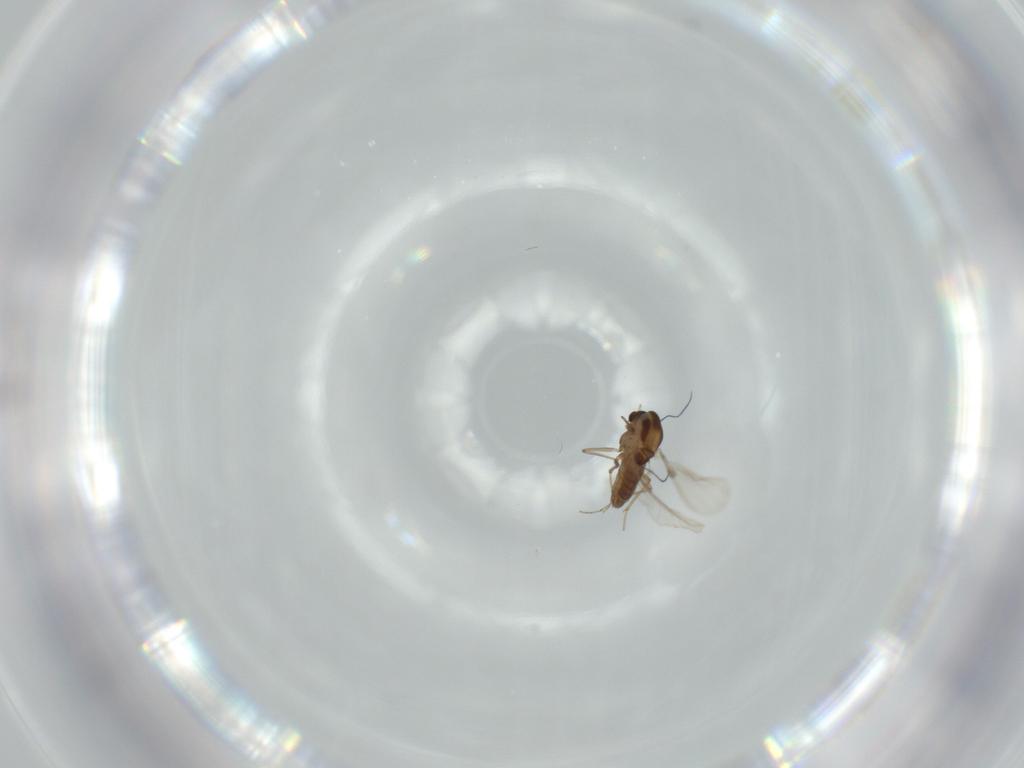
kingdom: Animalia
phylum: Arthropoda
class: Insecta
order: Diptera
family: Chironomidae
